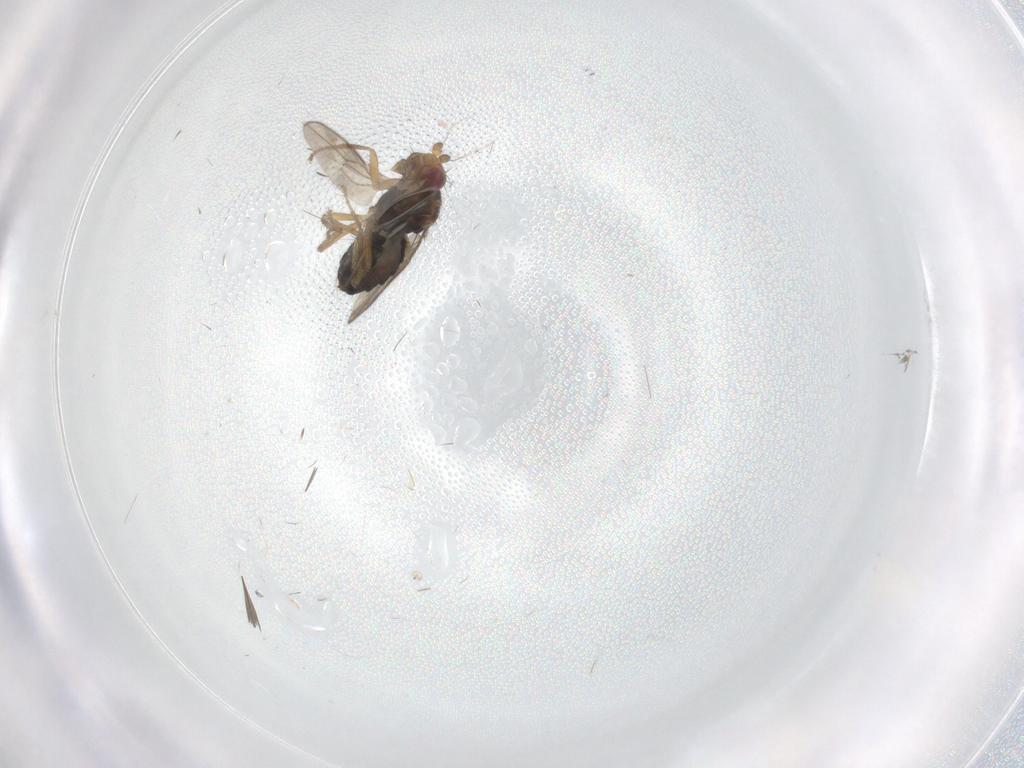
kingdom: Animalia
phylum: Arthropoda
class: Insecta
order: Diptera
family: Sphaeroceridae
